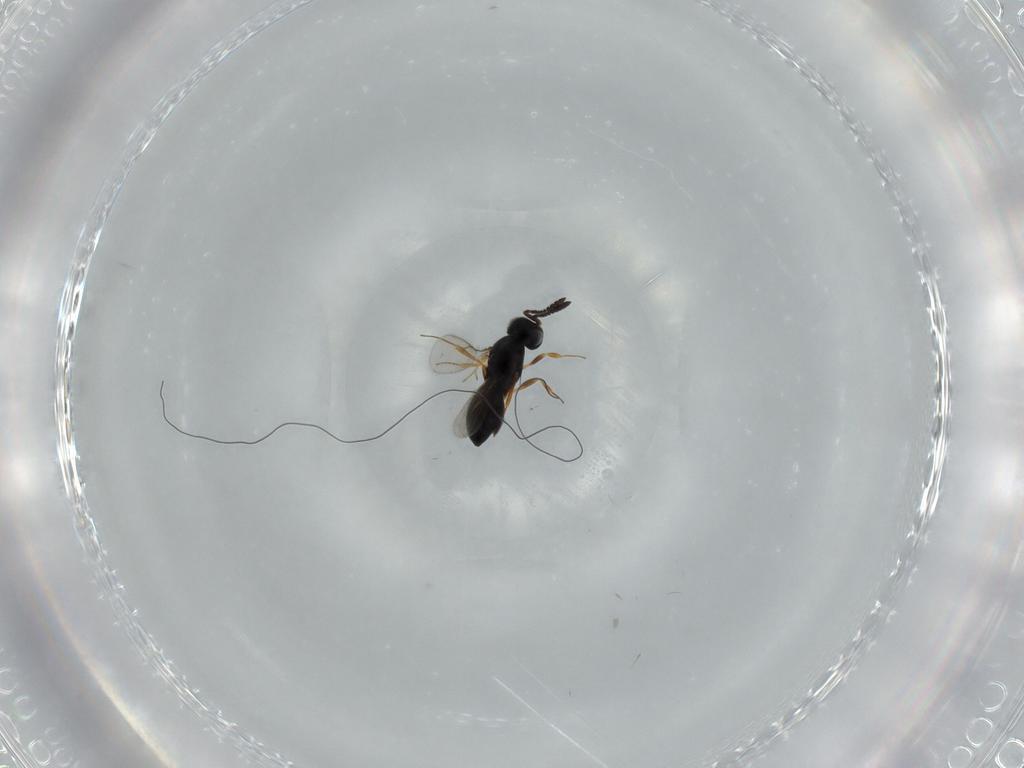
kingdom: Animalia
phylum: Arthropoda
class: Insecta
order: Hymenoptera
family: Scelionidae
